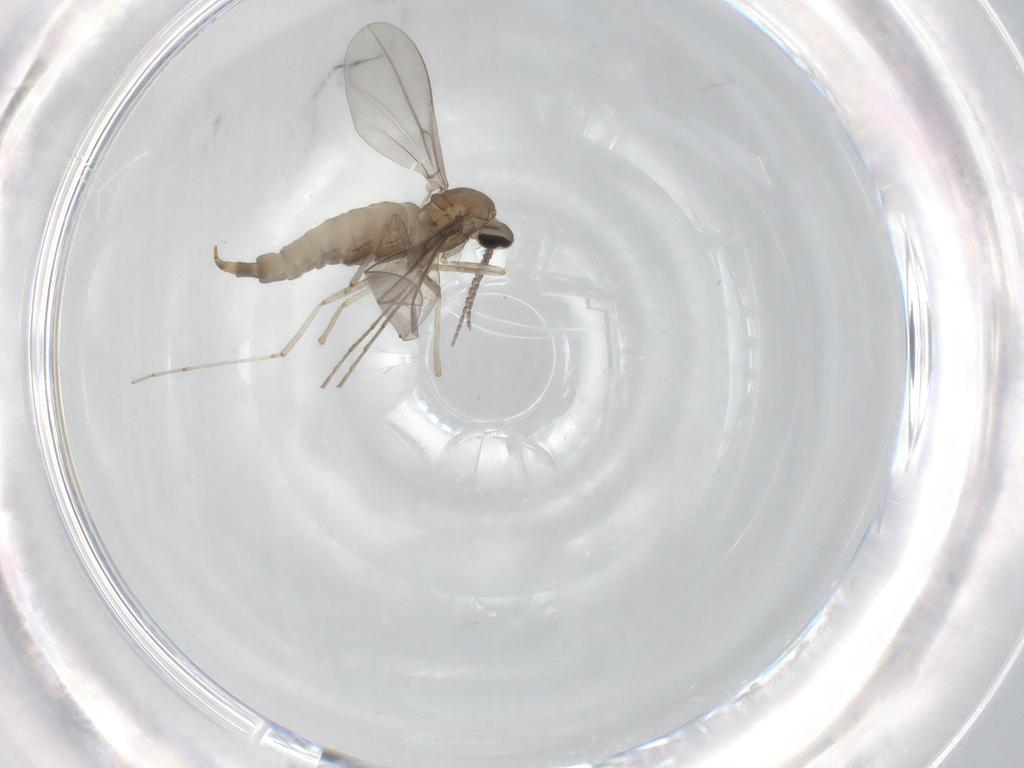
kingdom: Animalia
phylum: Arthropoda
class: Insecta
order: Diptera
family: Cecidomyiidae
